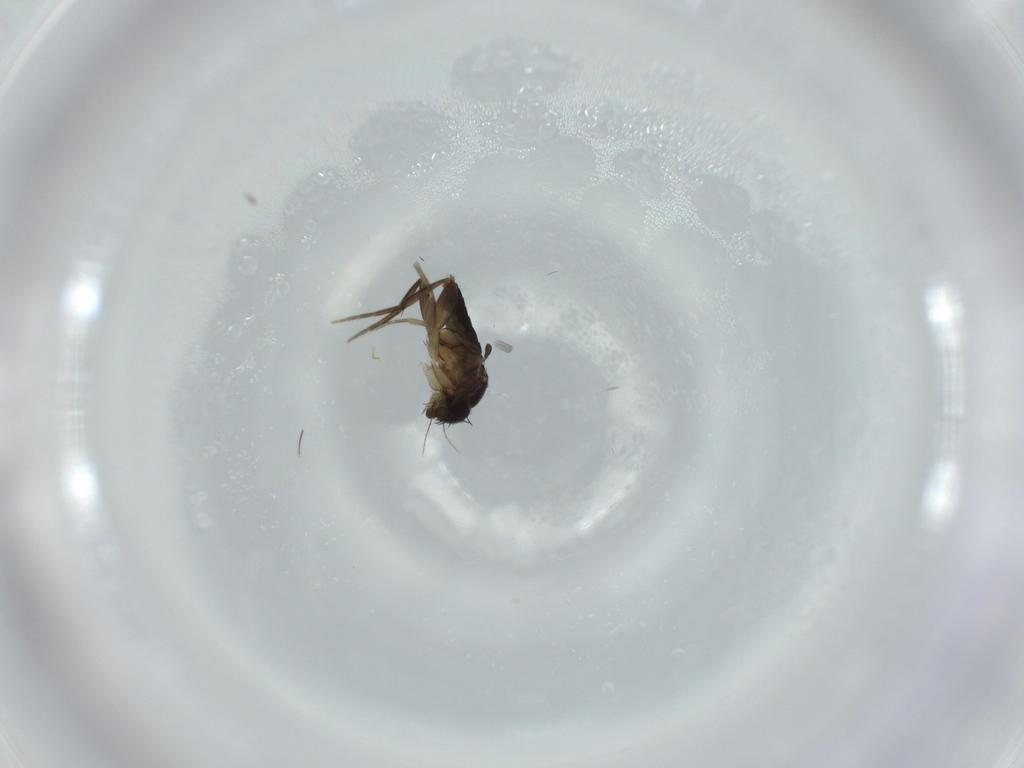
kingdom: Animalia
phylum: Arthropoda
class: Insecta
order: Diptera
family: Phoridae
